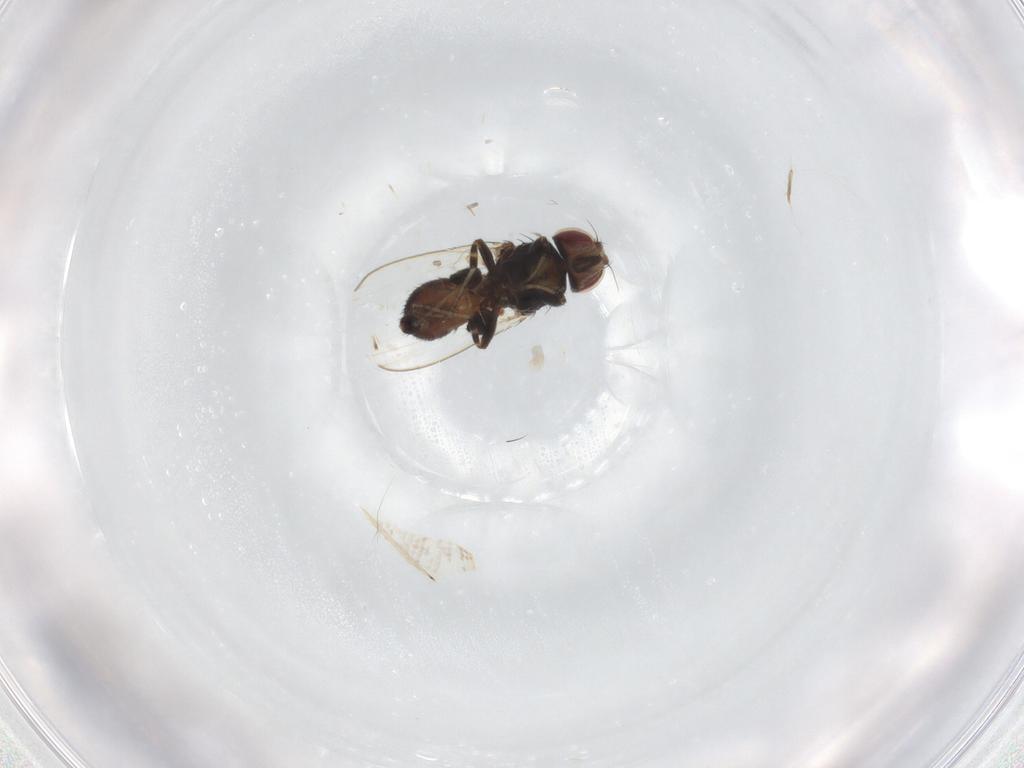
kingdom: Animalia
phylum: Arthropoda
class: Insecta
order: Diptera
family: Milichiidae
